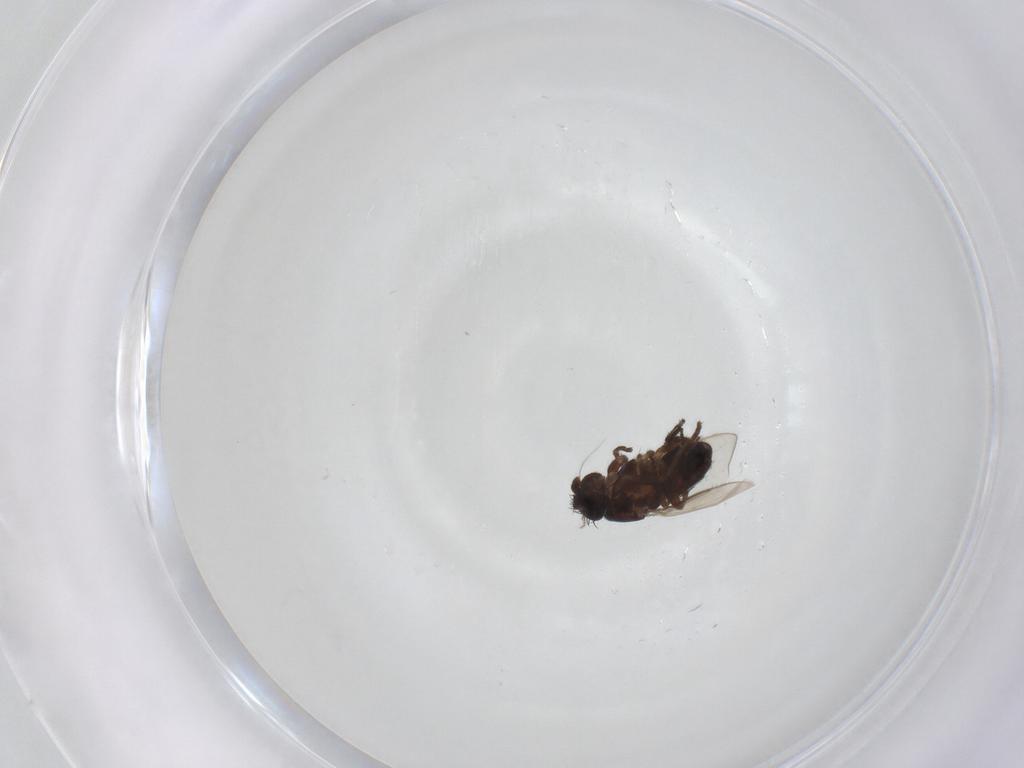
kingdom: Animalia
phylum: Arthropoda
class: Insecta
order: Diptera
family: Sphaeroceridae
